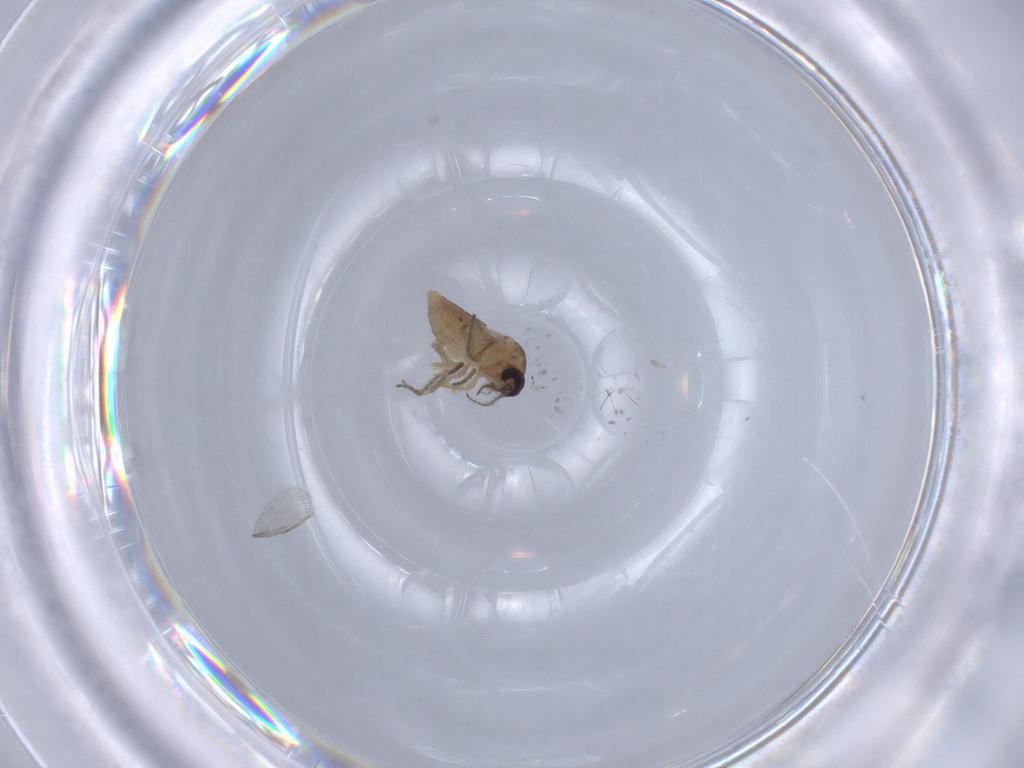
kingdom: Animalia
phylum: Arthropoda
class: Insecta
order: Diptera
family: Ceratopogonidae
